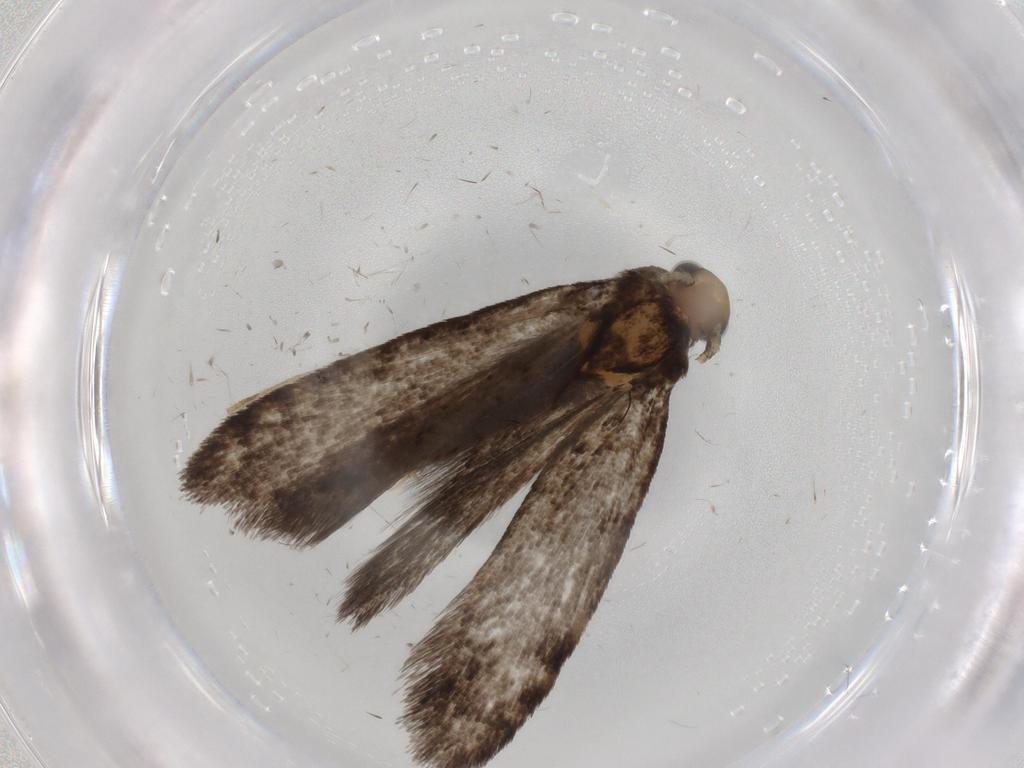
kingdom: Animalia
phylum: Arthropoda
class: Insecta
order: Lepidoptera
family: Tineidae
